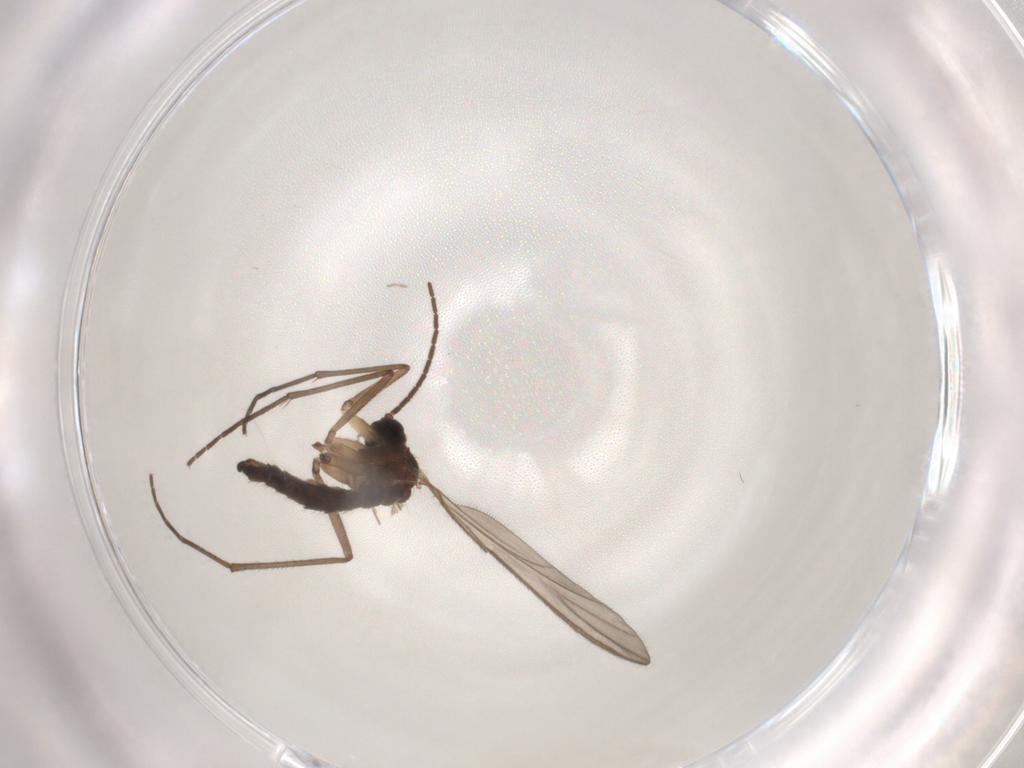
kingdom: Animalia
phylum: Arthropoda
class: Insecta
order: Diptera
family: Sciaridae
